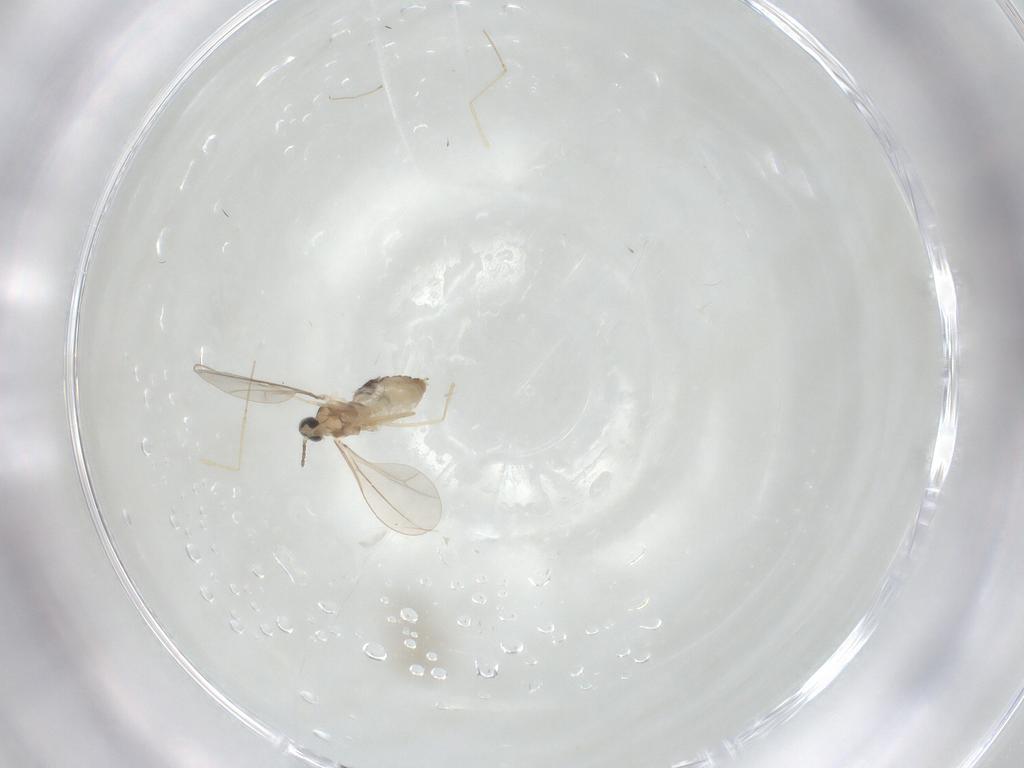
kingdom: Animalia
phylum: Arthropoda
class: Insecta
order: Diptera
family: Cecidomyiidae
